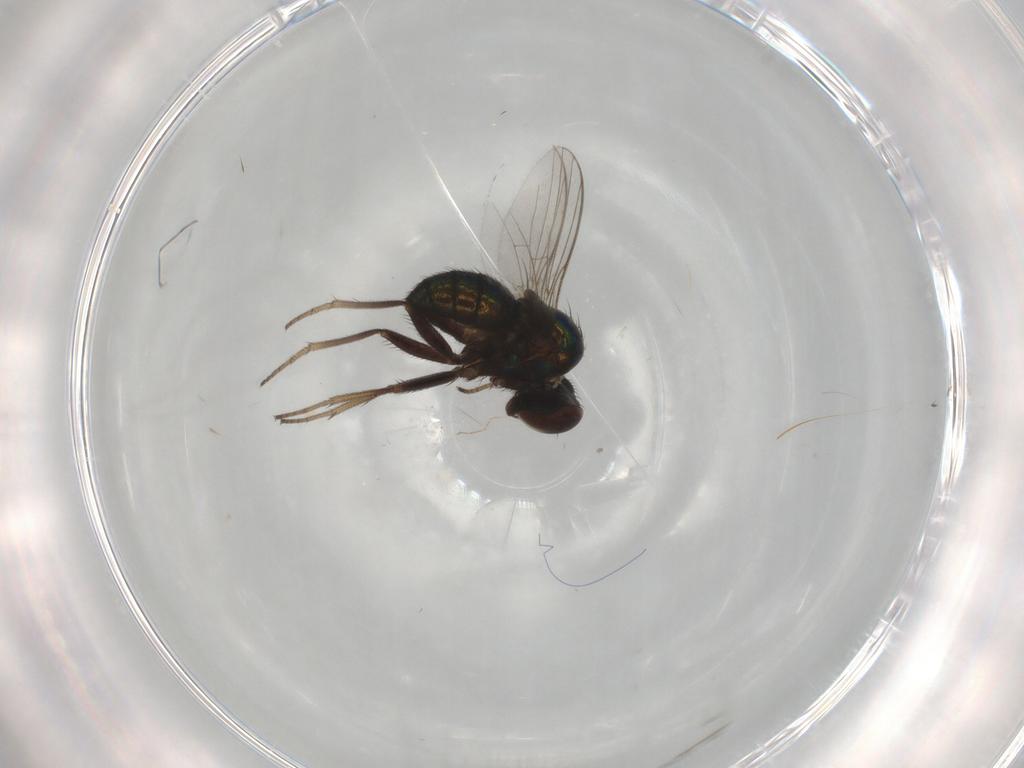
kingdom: Animalia
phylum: Arthropoda
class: Insecta
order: Diptera
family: Dolichopodidae
